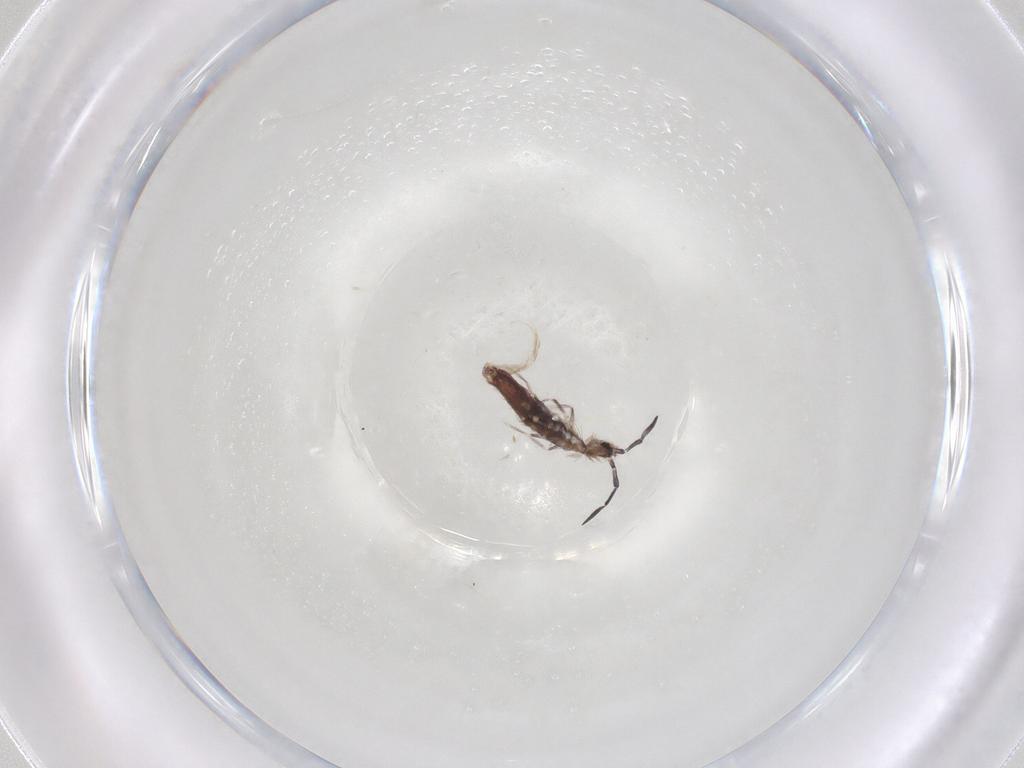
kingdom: Animalia
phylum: Arthropoda
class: Collembola
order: Poduromorpha
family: Hypogastruridae
